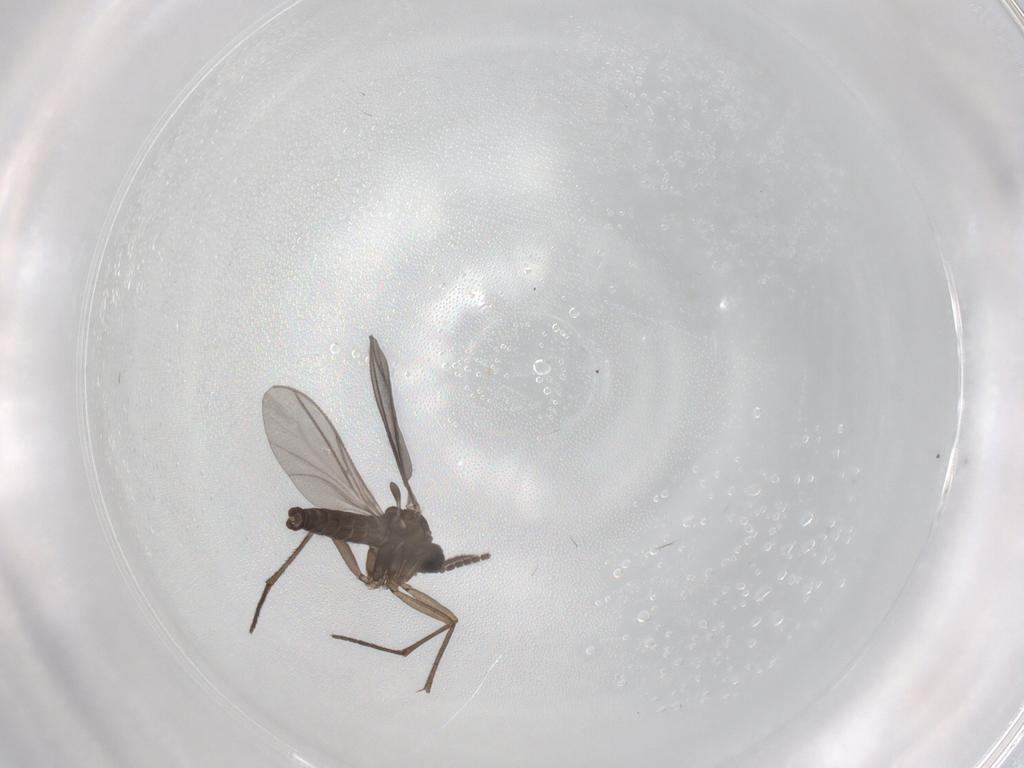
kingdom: Animalia
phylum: Arthropoda
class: Insecta
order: Diptera
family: Sciaridae
